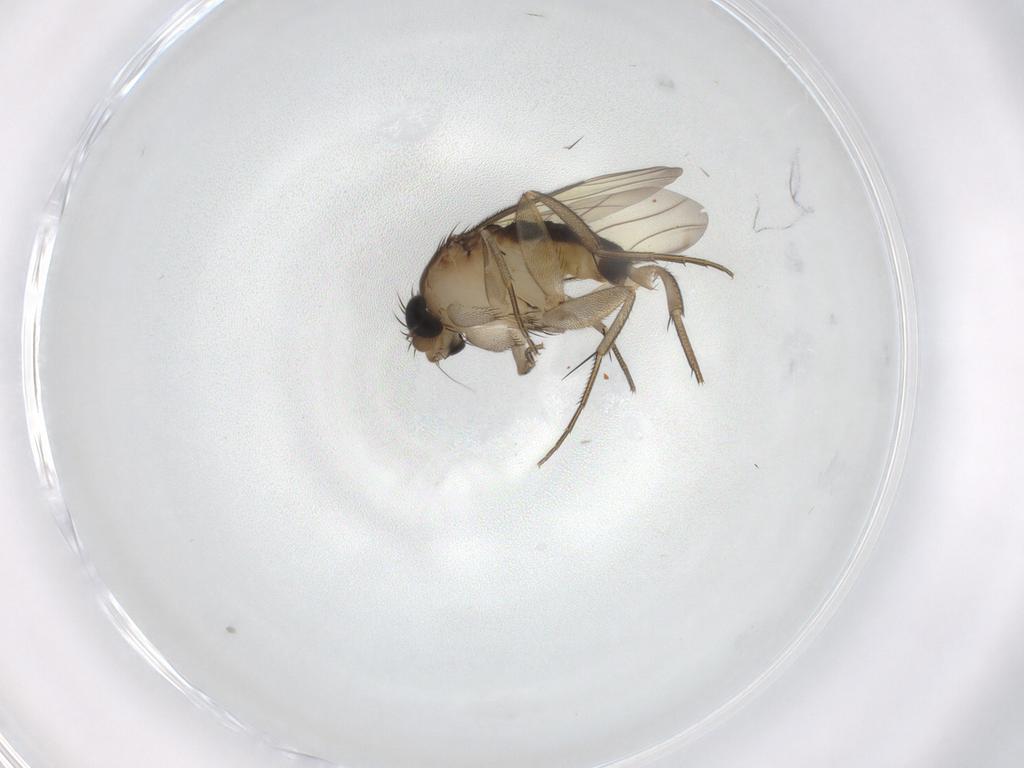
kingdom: Animalia
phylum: Arthropoda
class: Insecta
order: Diptera
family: Phoridae
